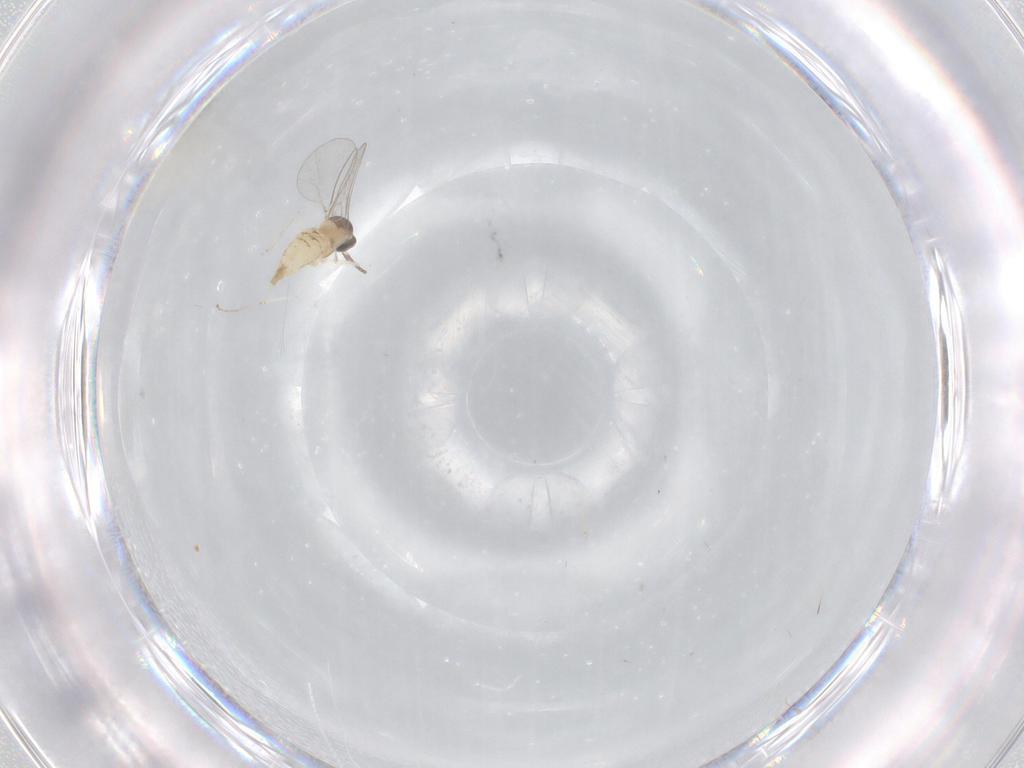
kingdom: Animalia
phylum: Arthropoda
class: Insecta
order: Diptera
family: Cecidomyiidae
